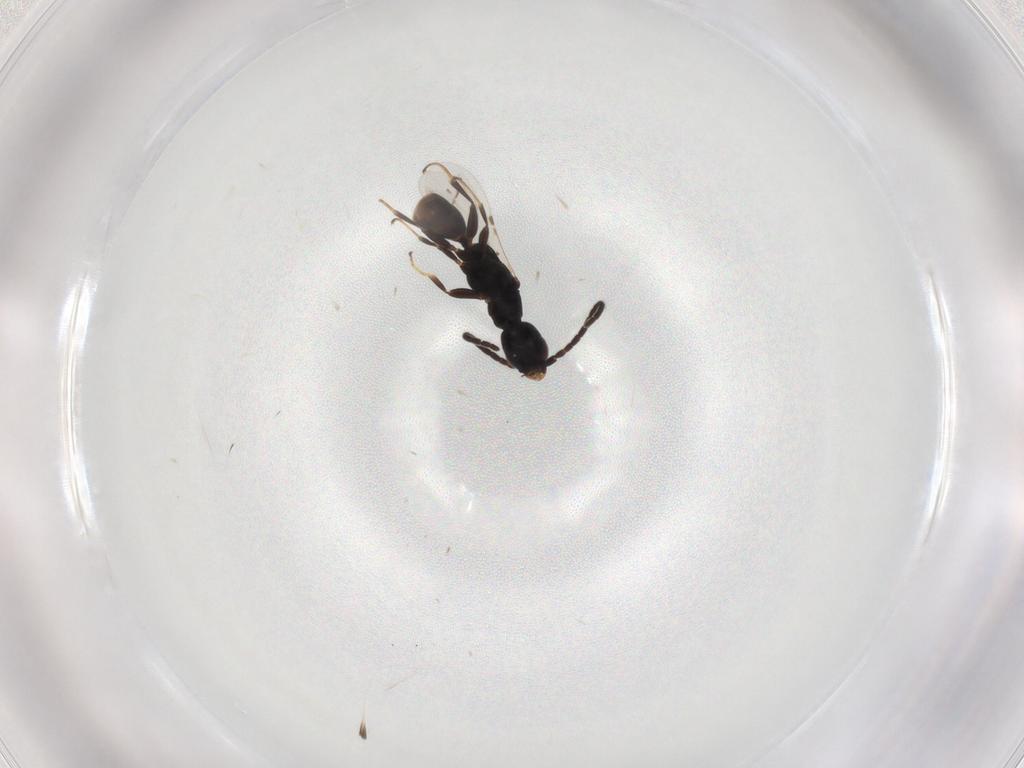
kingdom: Animalia
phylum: Arthropoda
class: Insecta
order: Hymenoptera
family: Bethylidae
